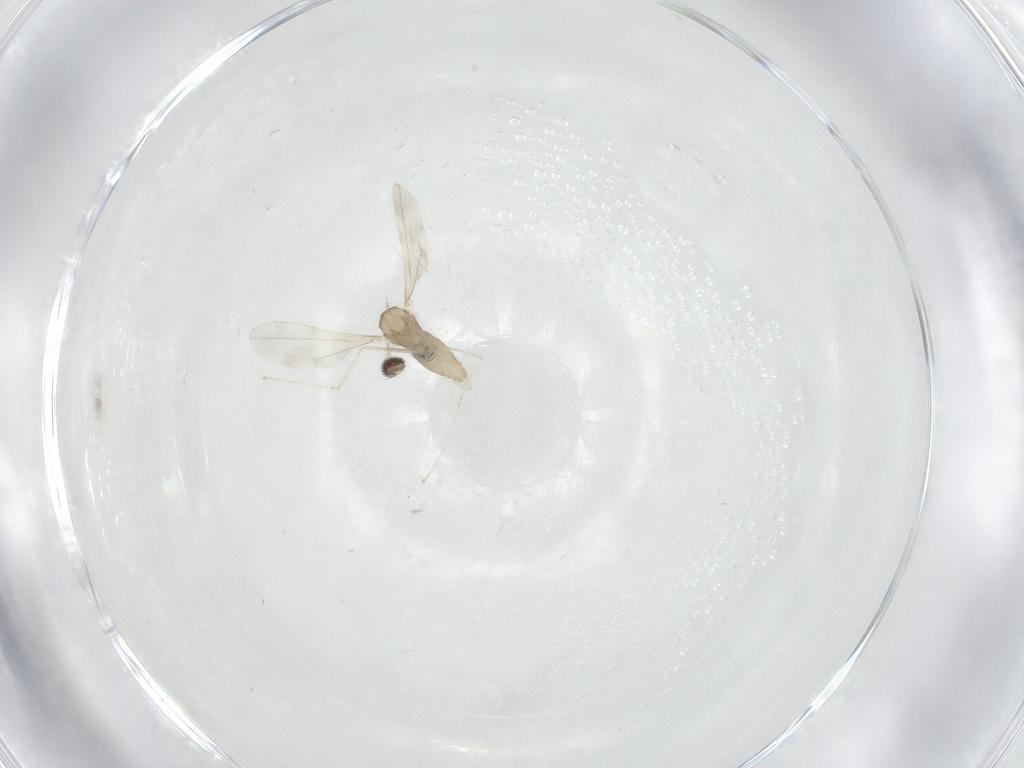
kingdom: Animalia
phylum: Arthropoda
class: Insecta
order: Diptera
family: Cecidomyiidae
